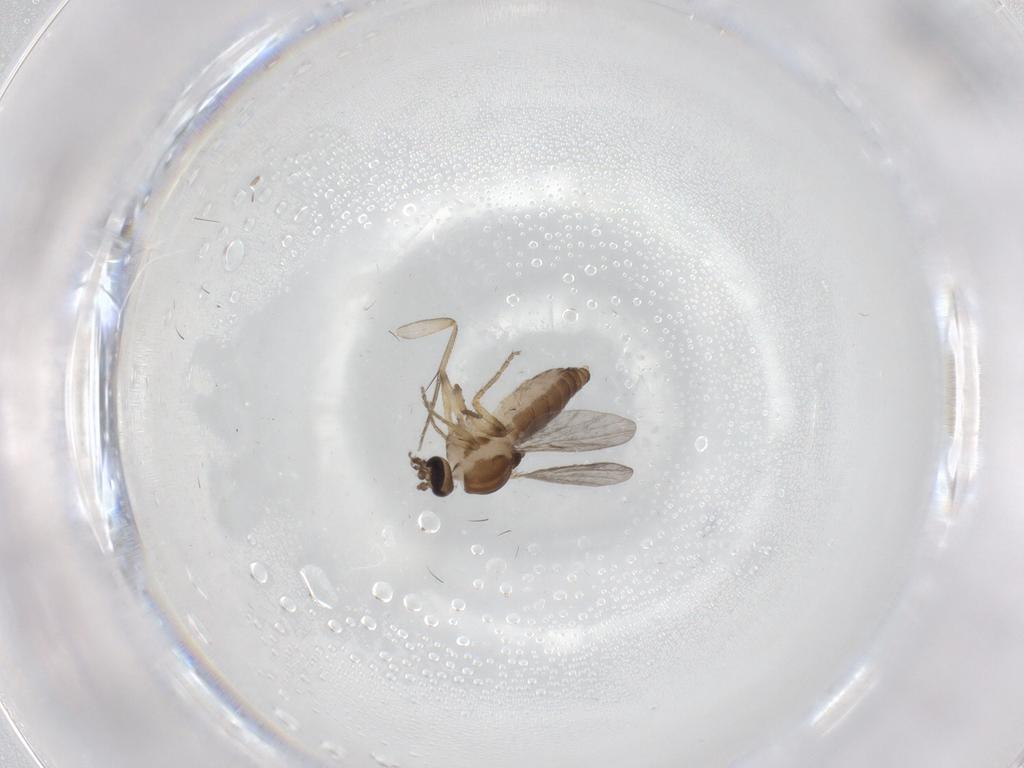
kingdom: Animalia
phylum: Arthropoda
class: Insecta
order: Diptera
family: Ceratopogonidae
